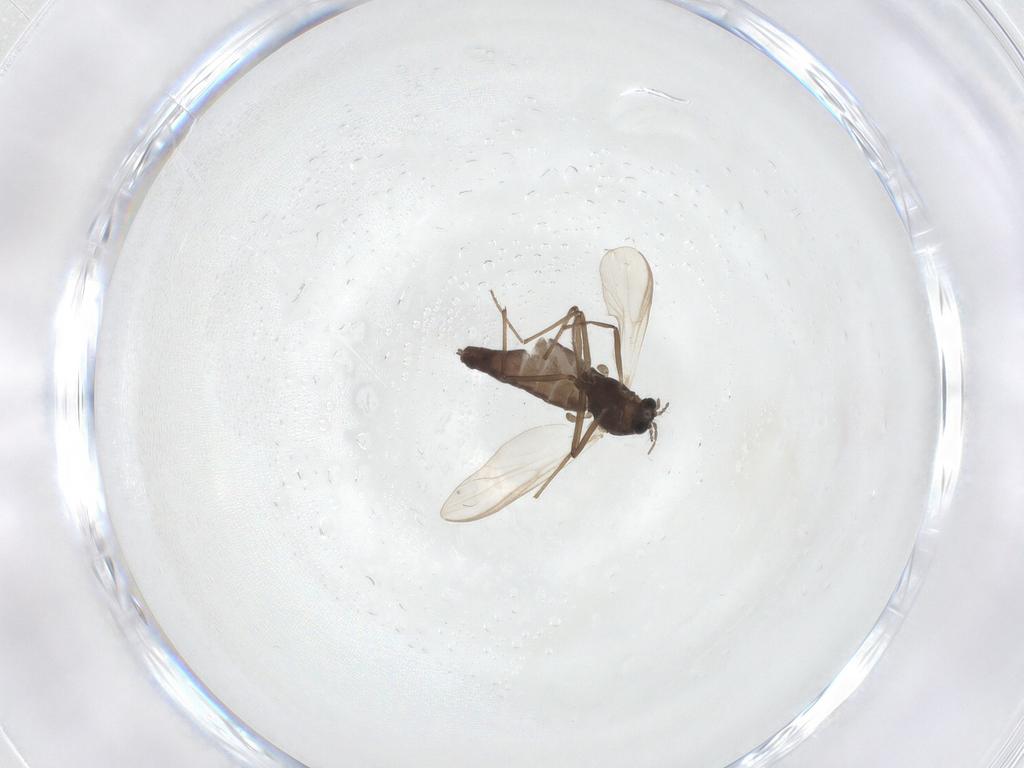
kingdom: Animalia
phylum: Arthropoda
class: Insecta
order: Diptera
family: Chironomidae
